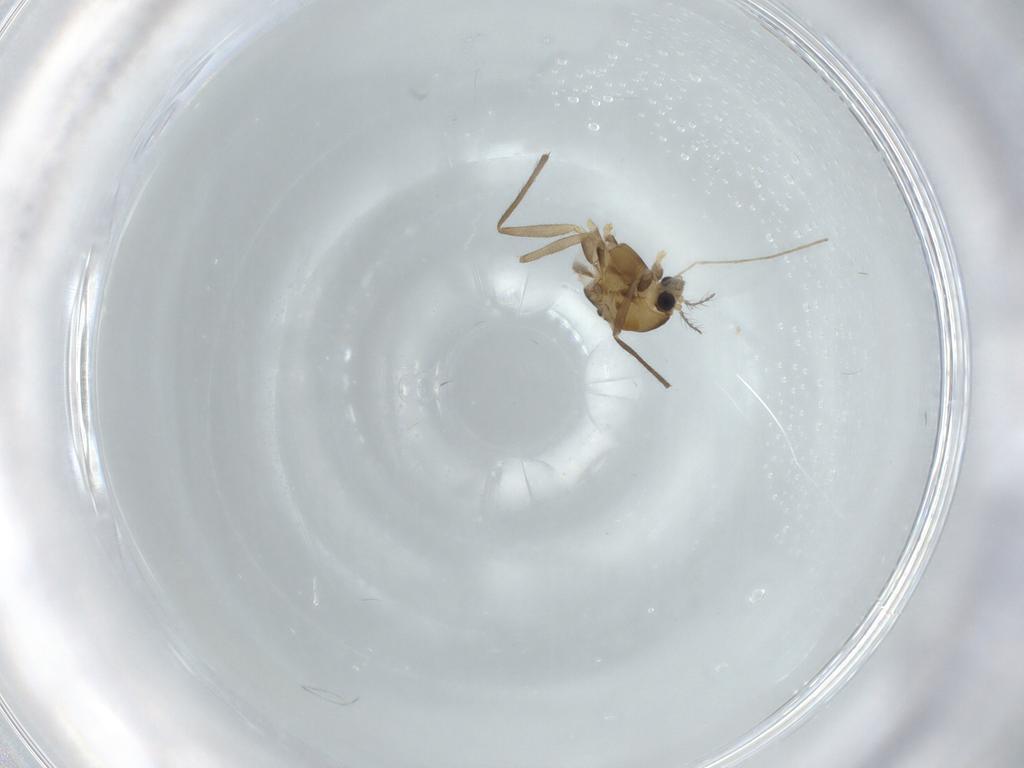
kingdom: Animalia
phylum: Arthropoda
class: Insecta
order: Diptera
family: Chironomidae
